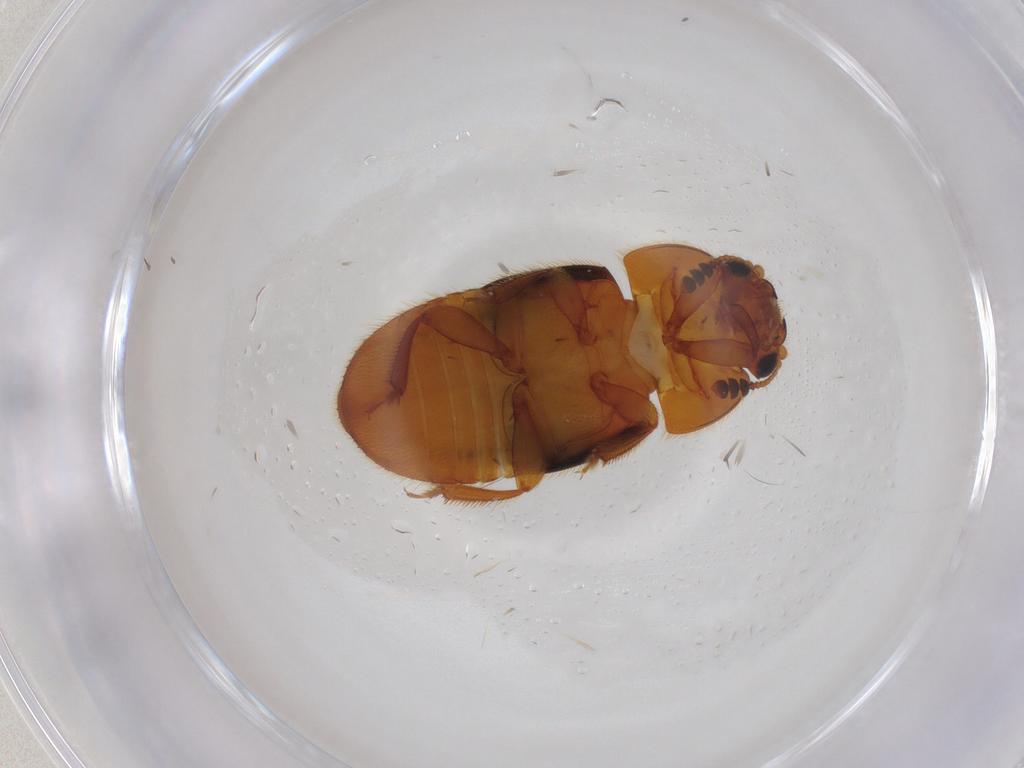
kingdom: Animalia
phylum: Arthropoda
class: Insecta
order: Coleoptera
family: Nitidulidae
